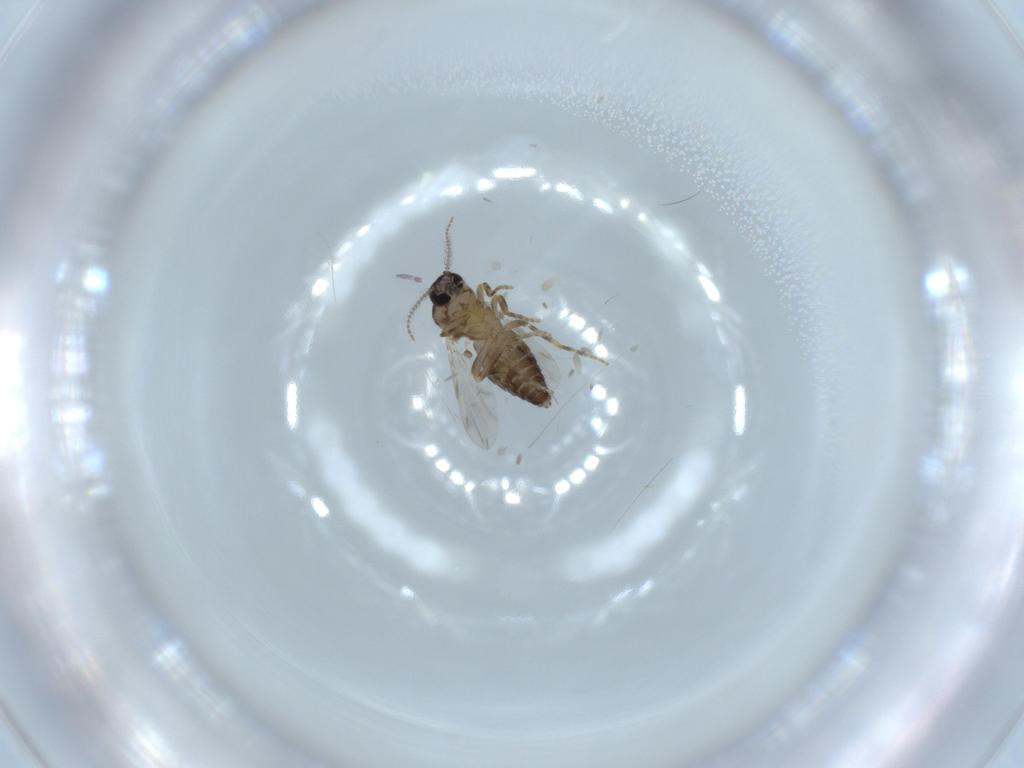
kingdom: Animalia
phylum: Arthropoda
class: Insecta
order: Diptera
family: Ceratopogonidae
